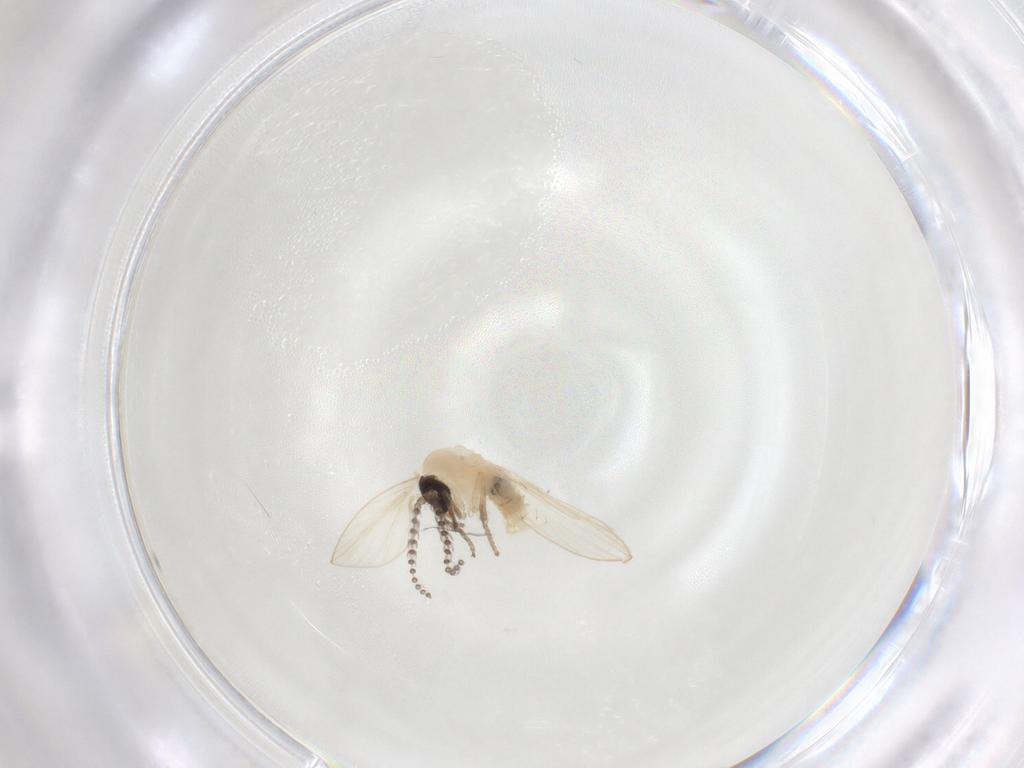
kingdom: Animalia
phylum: Arthropoda
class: Insecta
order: Diptera
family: Psychodidae
